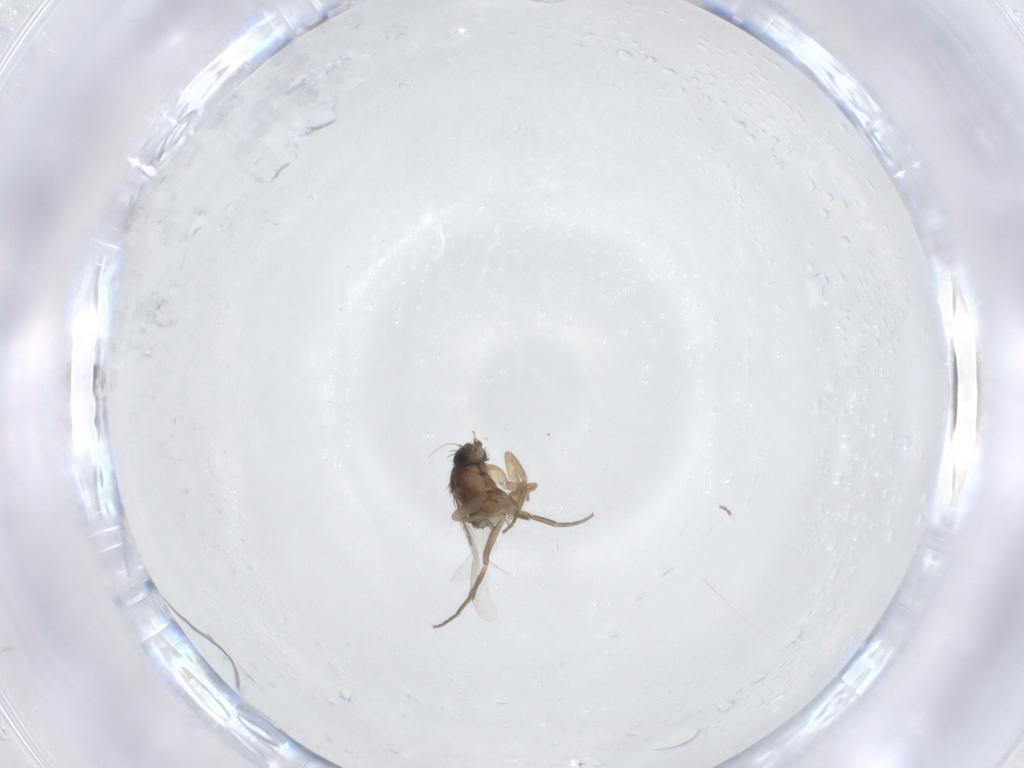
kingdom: Animalia
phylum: Arthropoda
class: Insecta
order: Diptera
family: Phoridae
